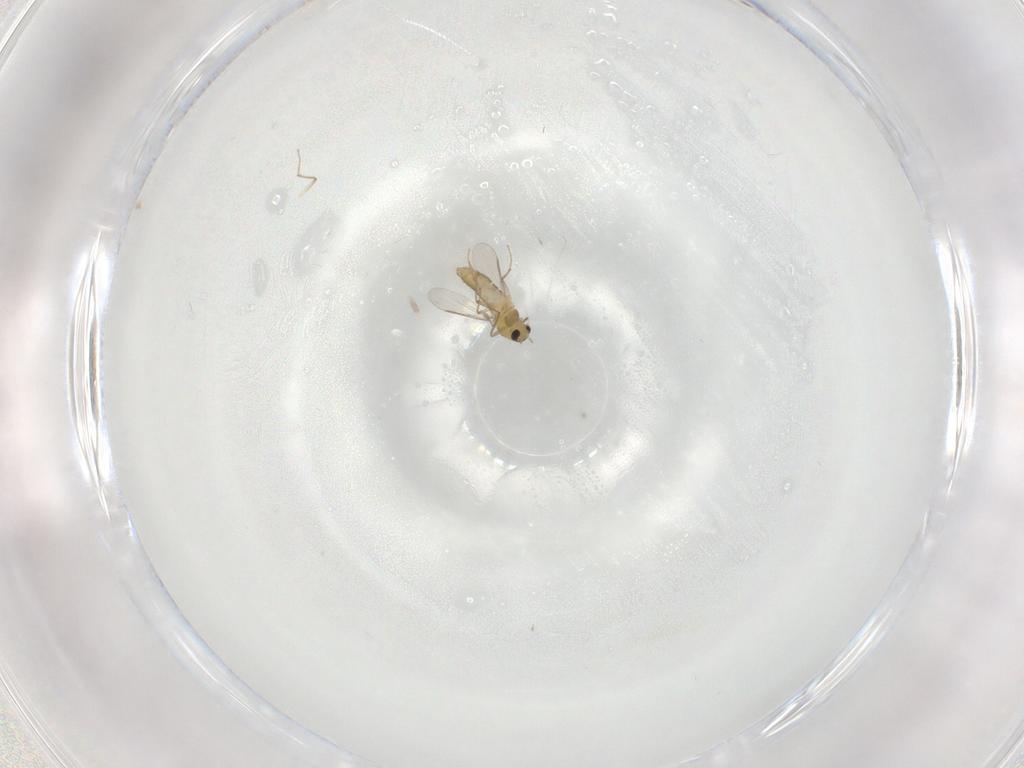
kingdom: Animalia
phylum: Arthropoda
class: Insecta
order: Diptera
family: Chironomidae
